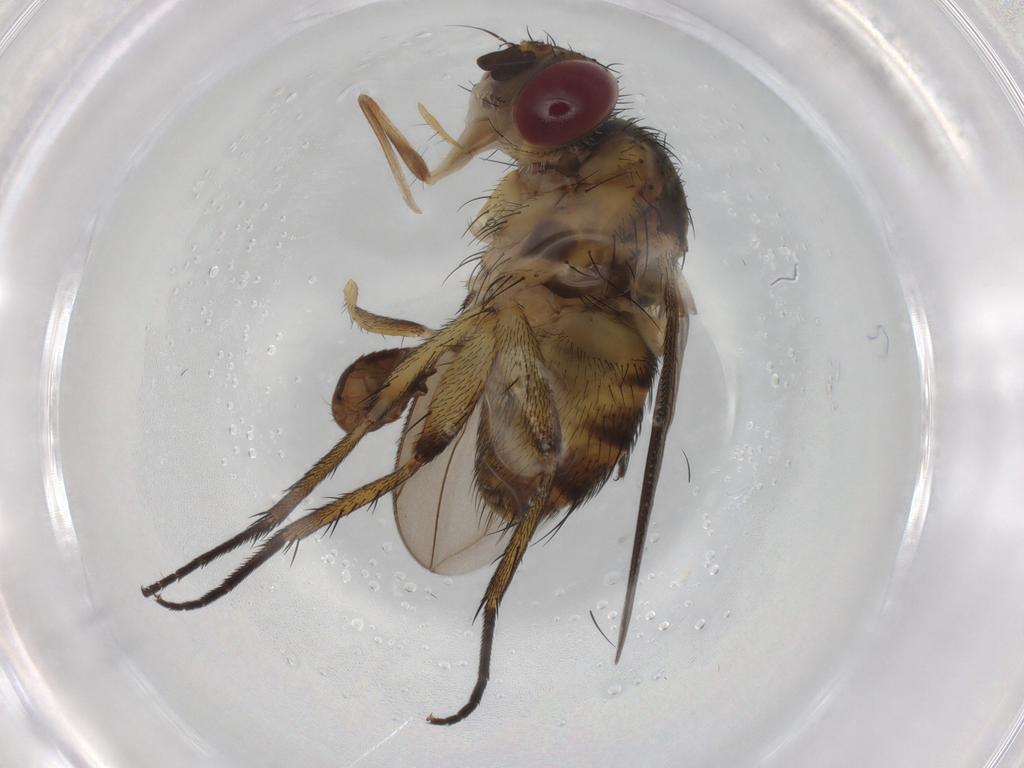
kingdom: Animalia
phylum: Arthropoda
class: Insecta
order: Diptera
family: Tachinidae
